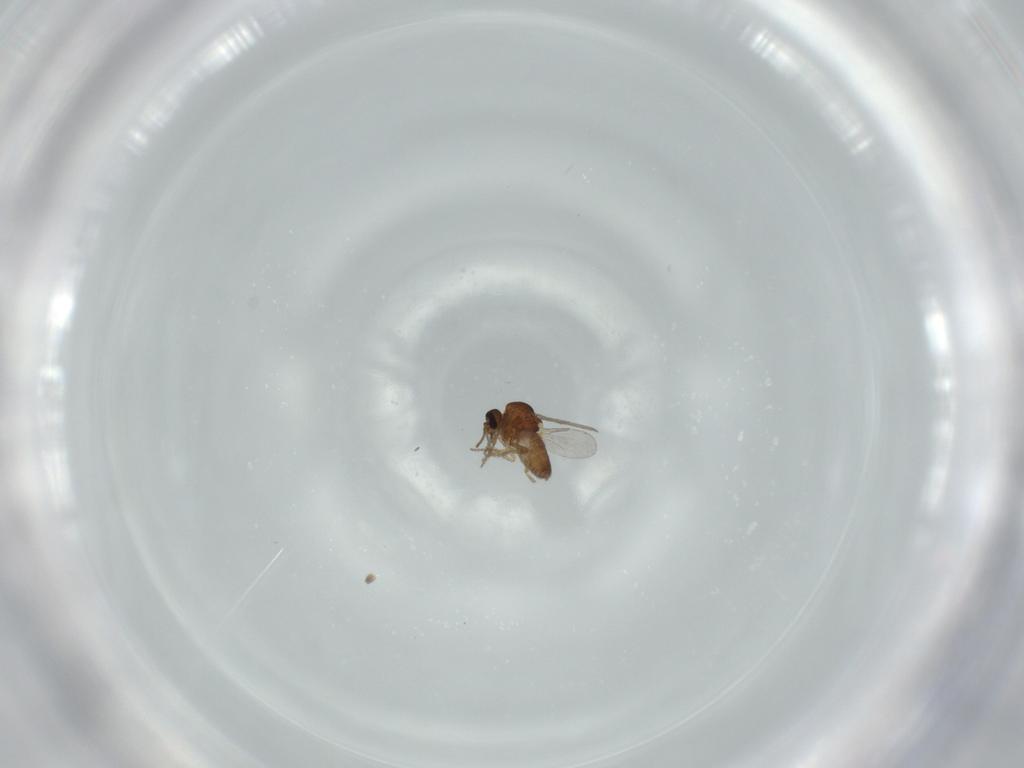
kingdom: Animalia
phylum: Arthropoda
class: Insecta
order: Diptera
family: Ceratopogonidae
